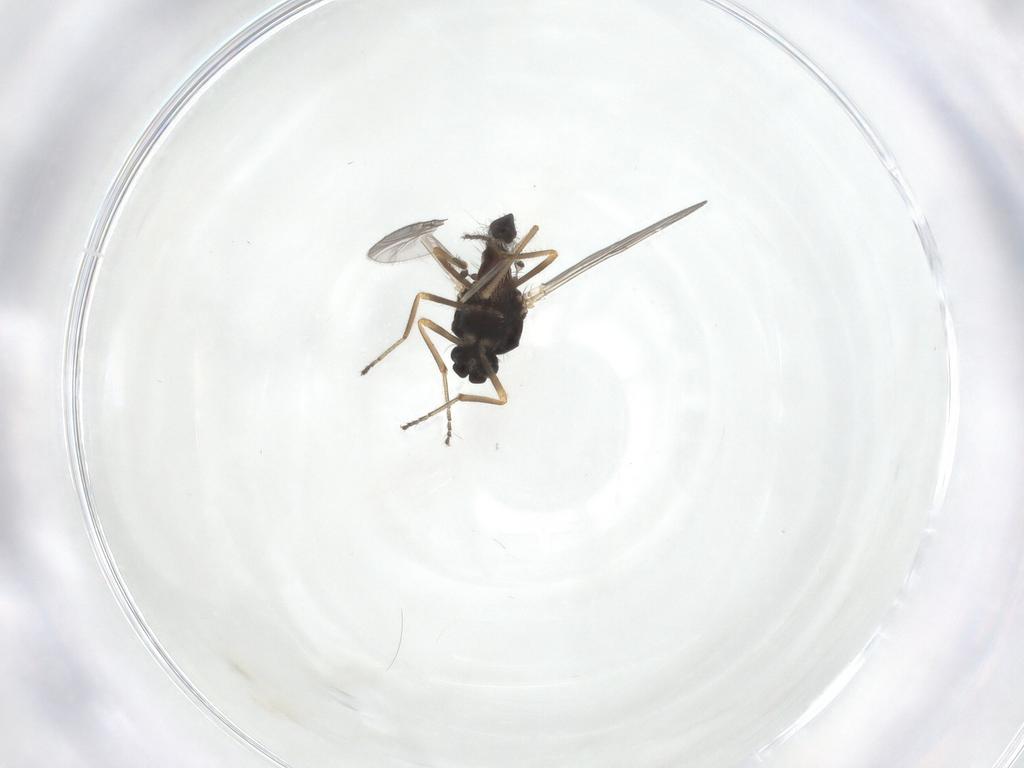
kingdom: Animalia
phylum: Arthropoda
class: Insecta
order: Diptera
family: Ceratopogonidae
